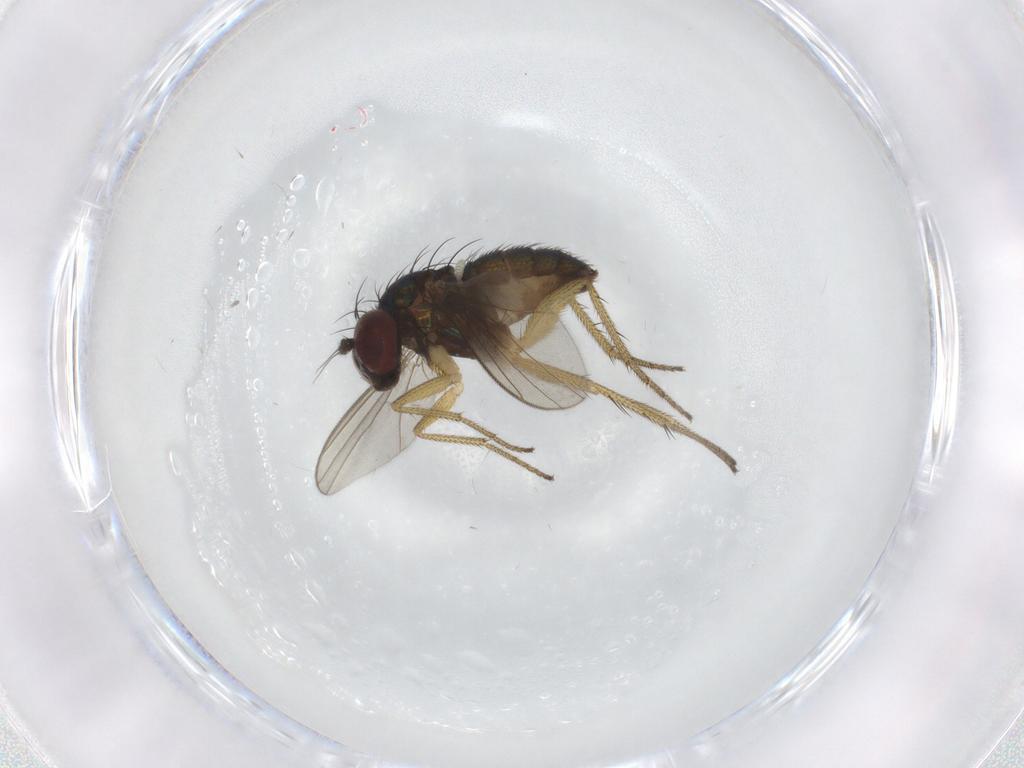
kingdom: Animalia
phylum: Arthropoda
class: Insecta
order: Diptera
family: Dolichopodidae
